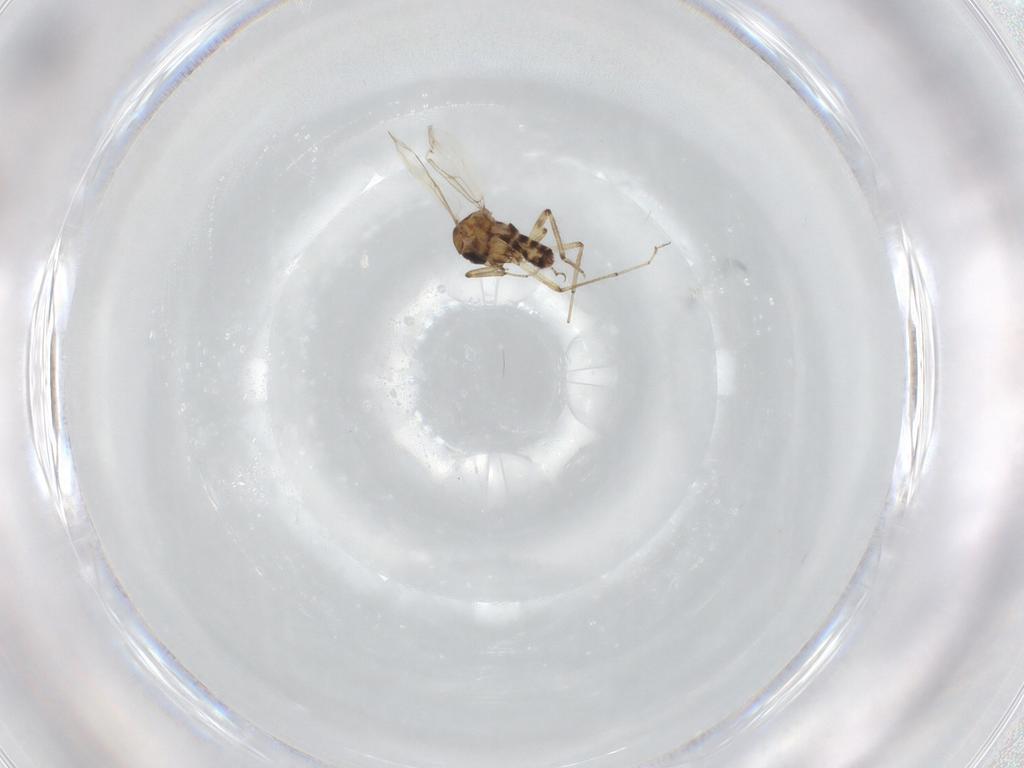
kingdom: Animalia
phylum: Arthropoda
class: Insecta
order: Diptera
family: Ceratopogonidae
